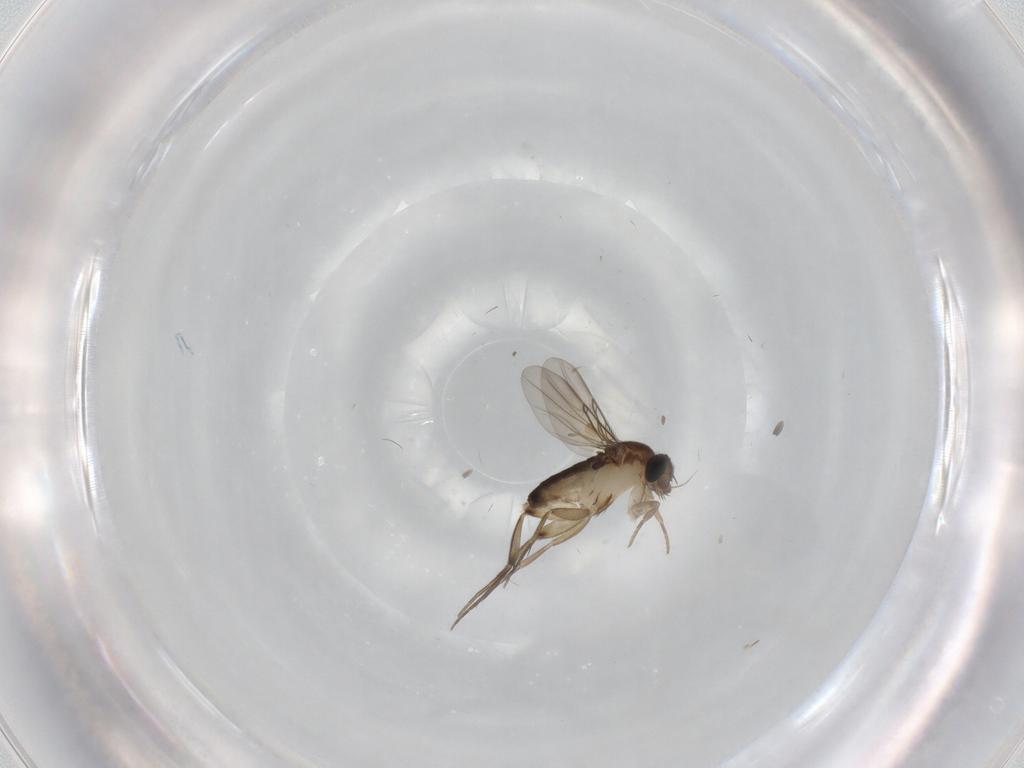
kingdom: Animalia
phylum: Arthropoda
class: Insecta
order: Diptera
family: Phoridae
